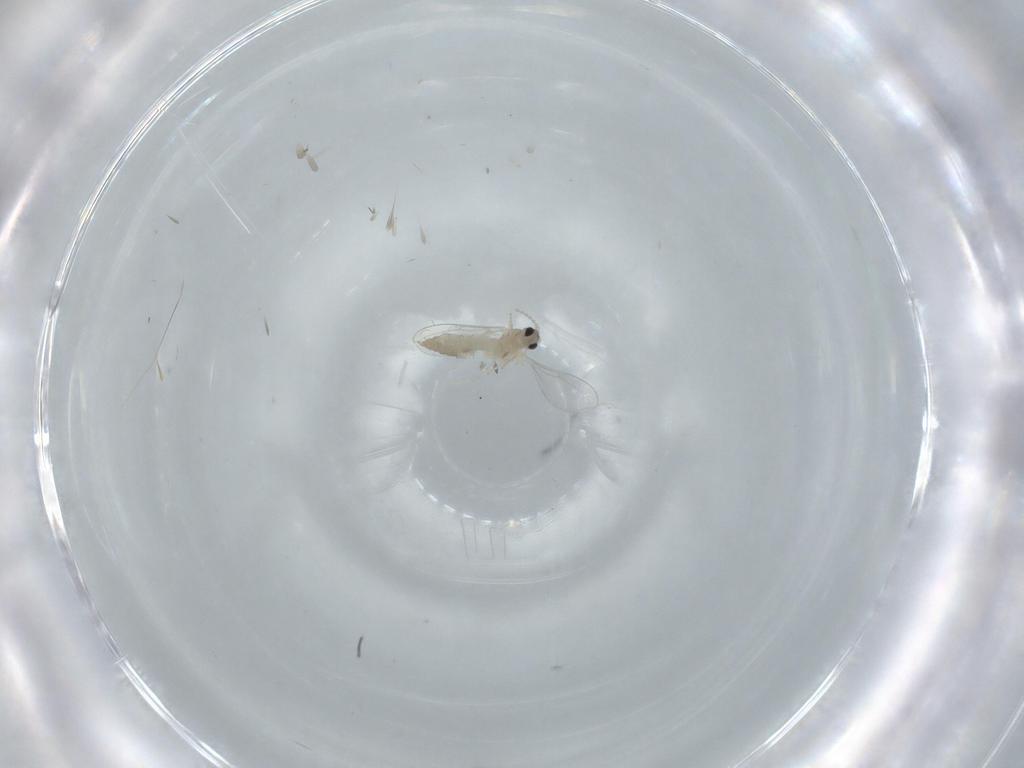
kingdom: Animalia
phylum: Arthropoda
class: Insecta
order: Diptera
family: Cecidomyiidae
